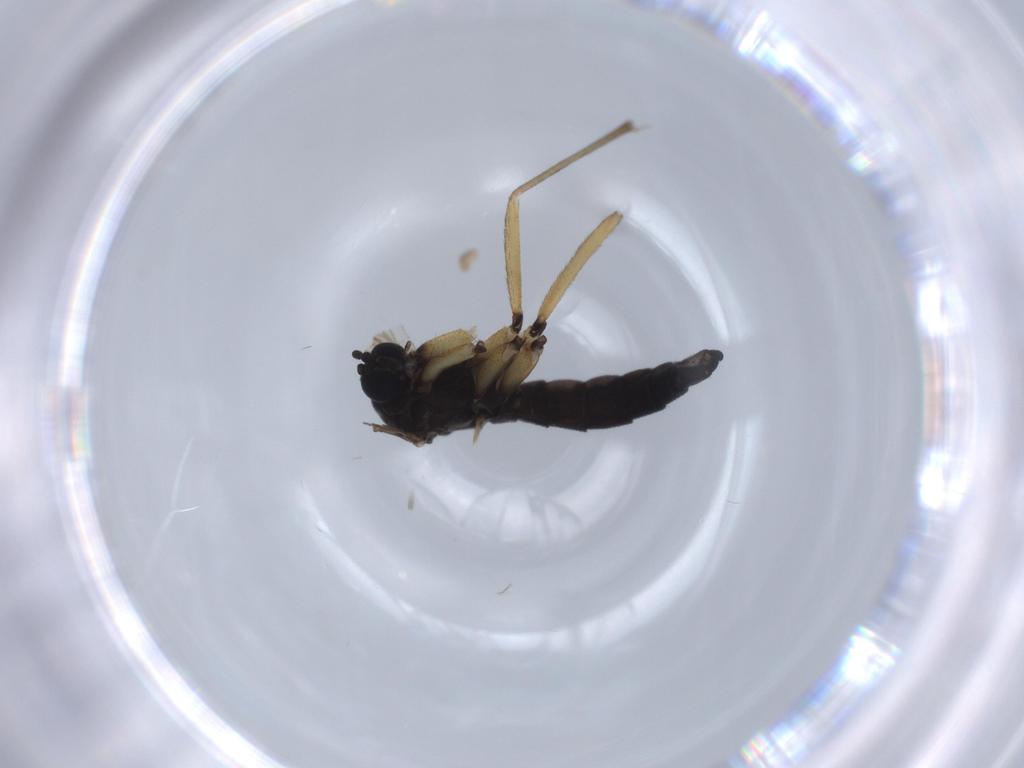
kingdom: Animalia
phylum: Arthropoda
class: Insecta
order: Diptera
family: Sciaridae
